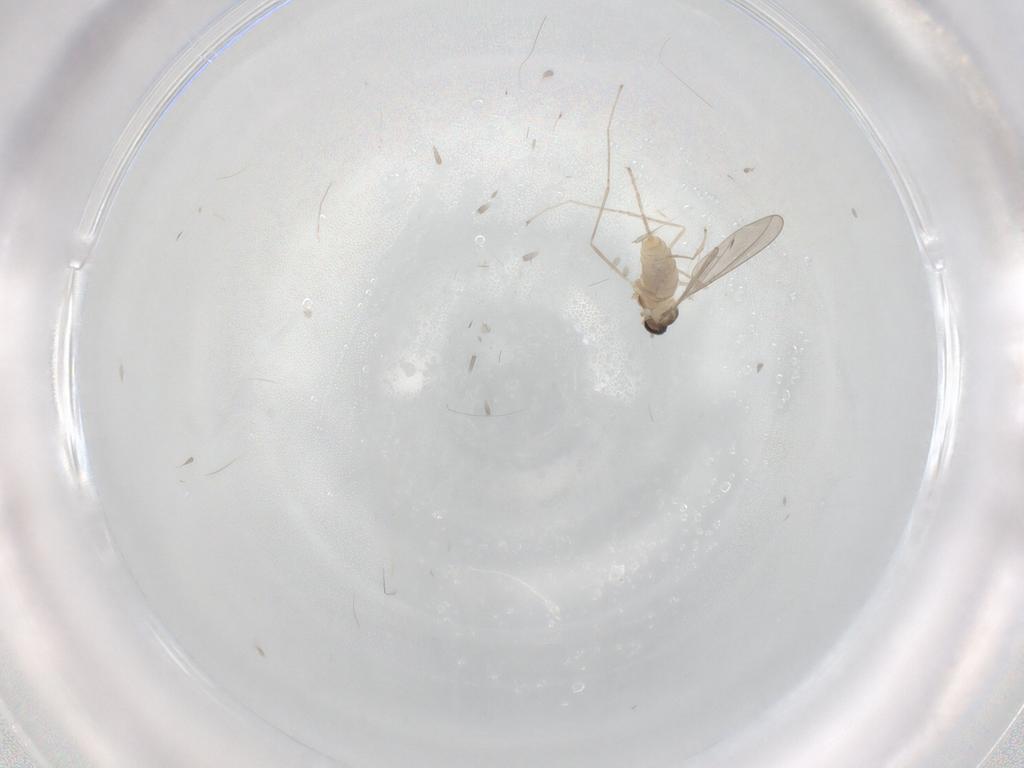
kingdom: Animalia
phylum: Arthropoda
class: Insecta
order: Diptera
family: Cecidomyiidae
